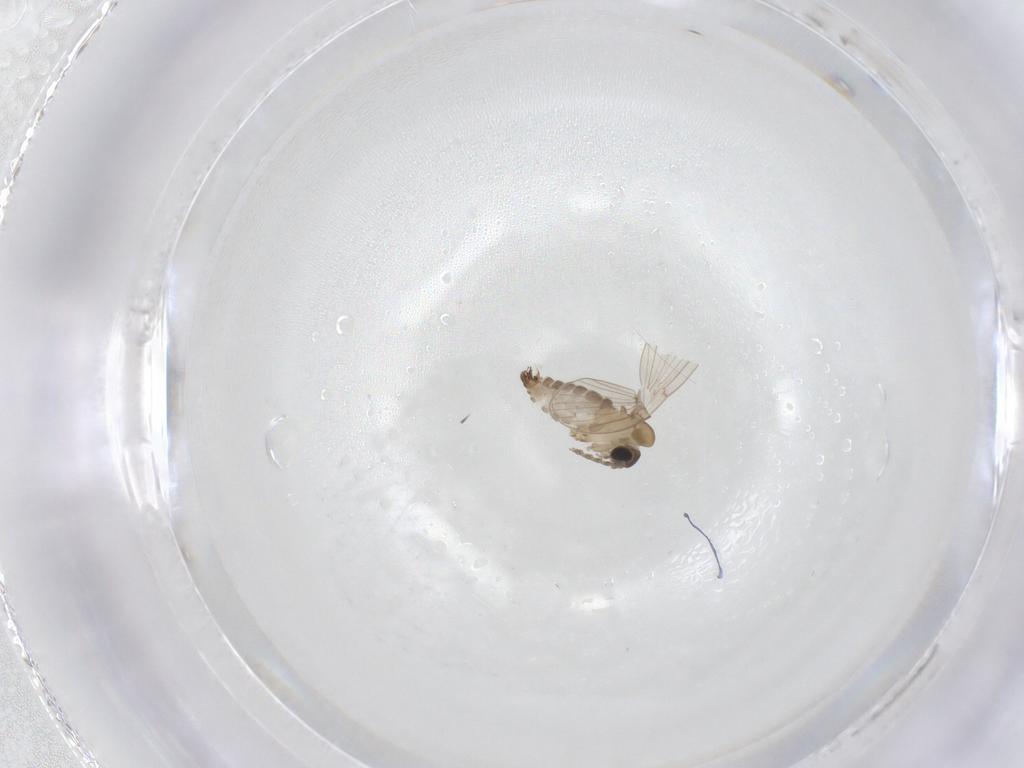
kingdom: Animalia
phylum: Arthropoda
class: Insecta
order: Diptera
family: Psychodidae
